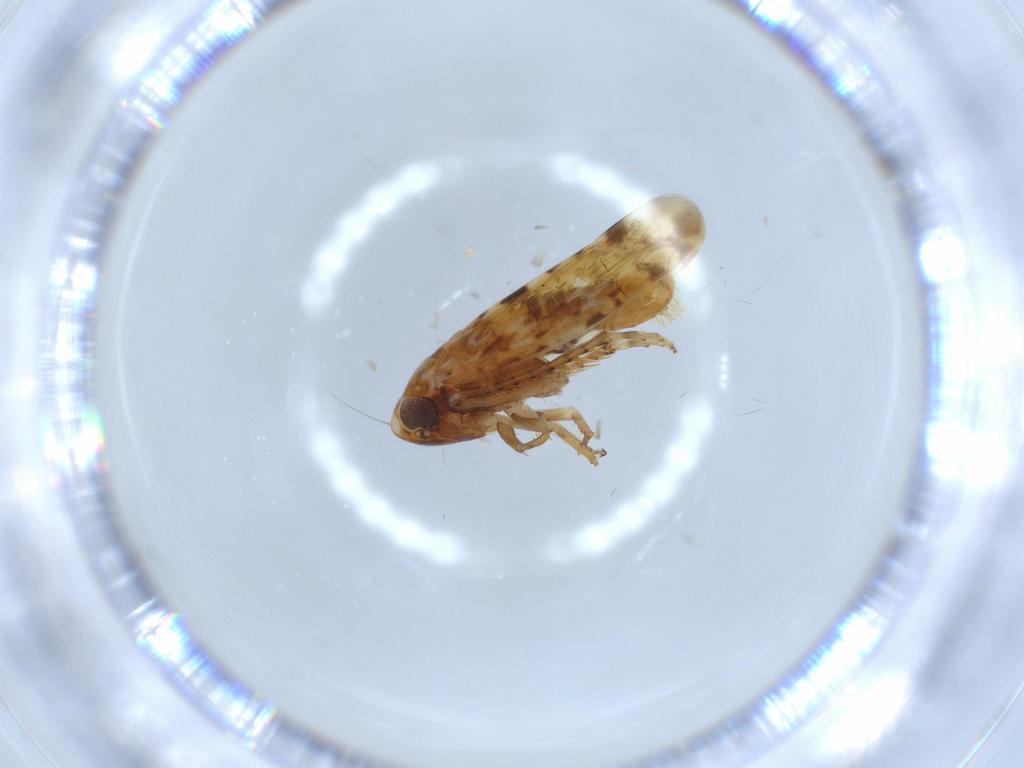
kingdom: Animalia
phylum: Arthropoda
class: Insecta
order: Hemiptera
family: Cicadellidae
